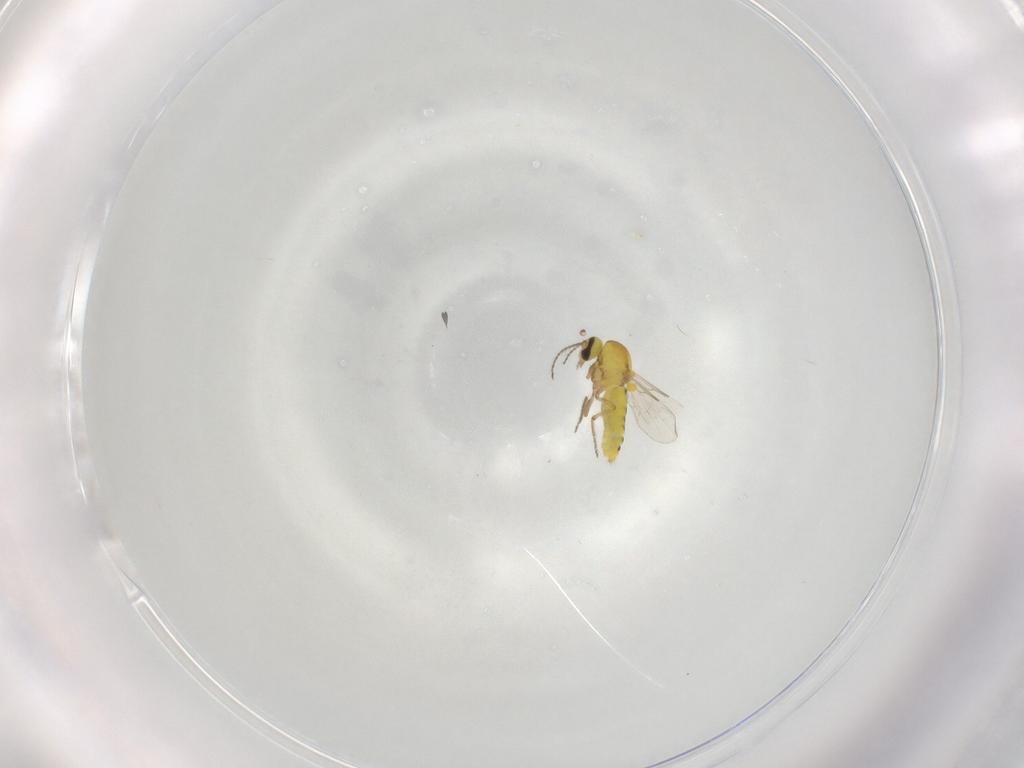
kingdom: Animalia
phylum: Arthropoda
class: Insecta
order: Diptera
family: Ceratopogonidae
